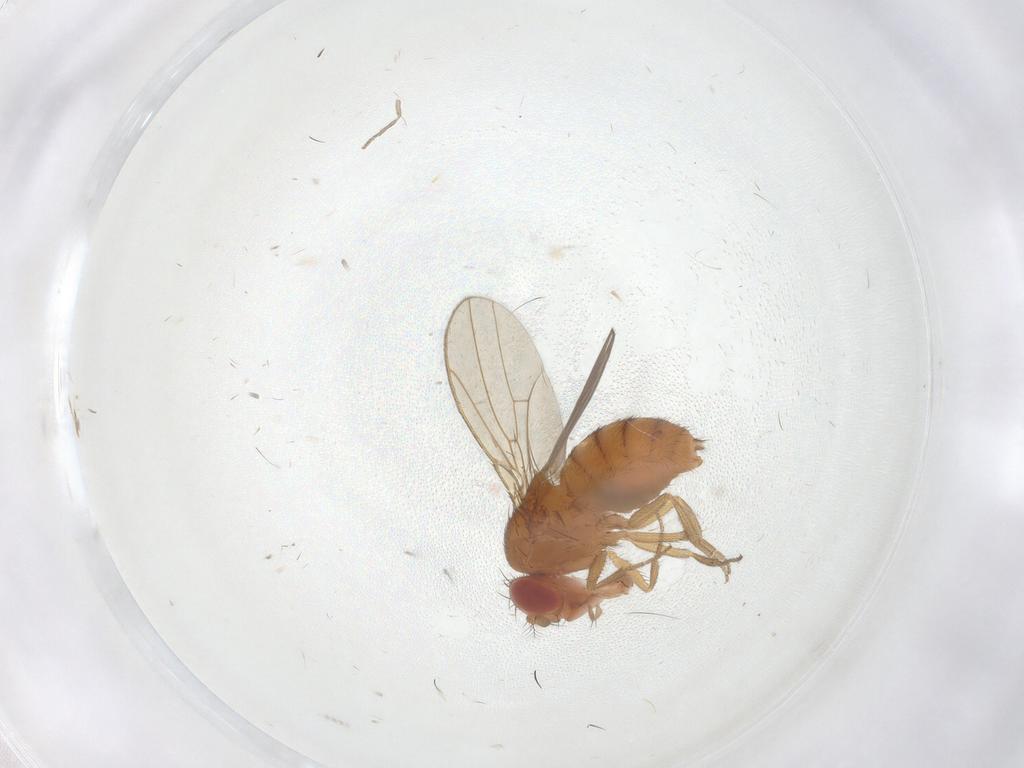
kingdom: Animalia
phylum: Arthropoda
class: Insecta
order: Diptera
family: Drosophilidae
